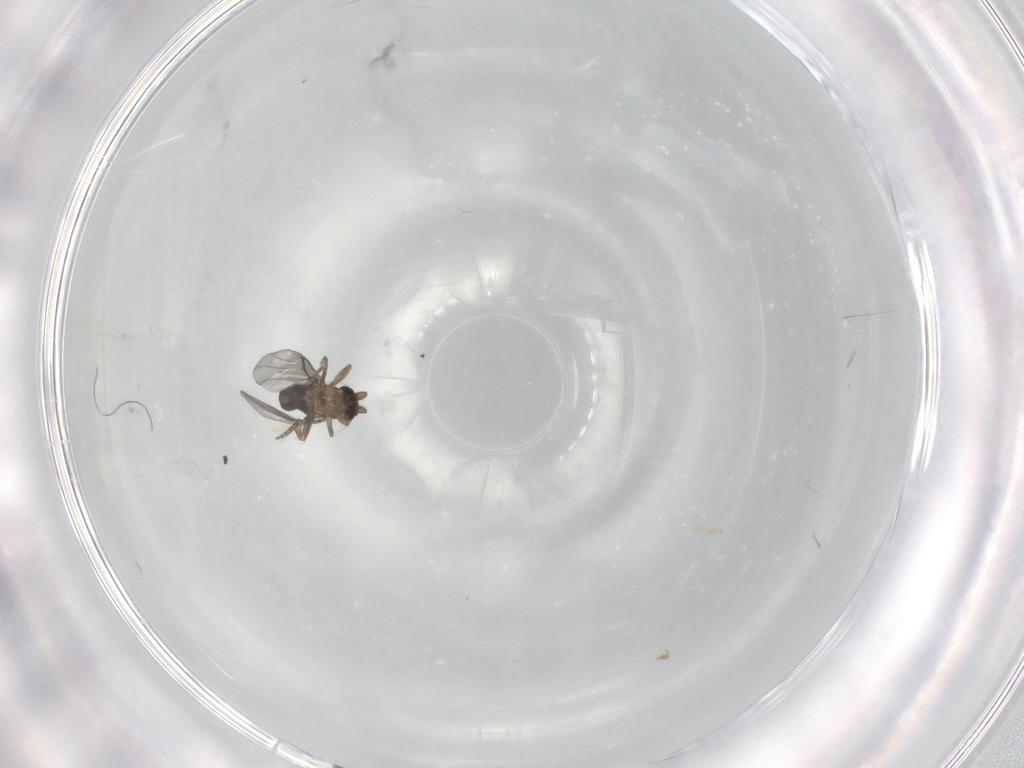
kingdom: Animalia
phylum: Arthropoda
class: Insecta
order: Diptera
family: Phoridae
